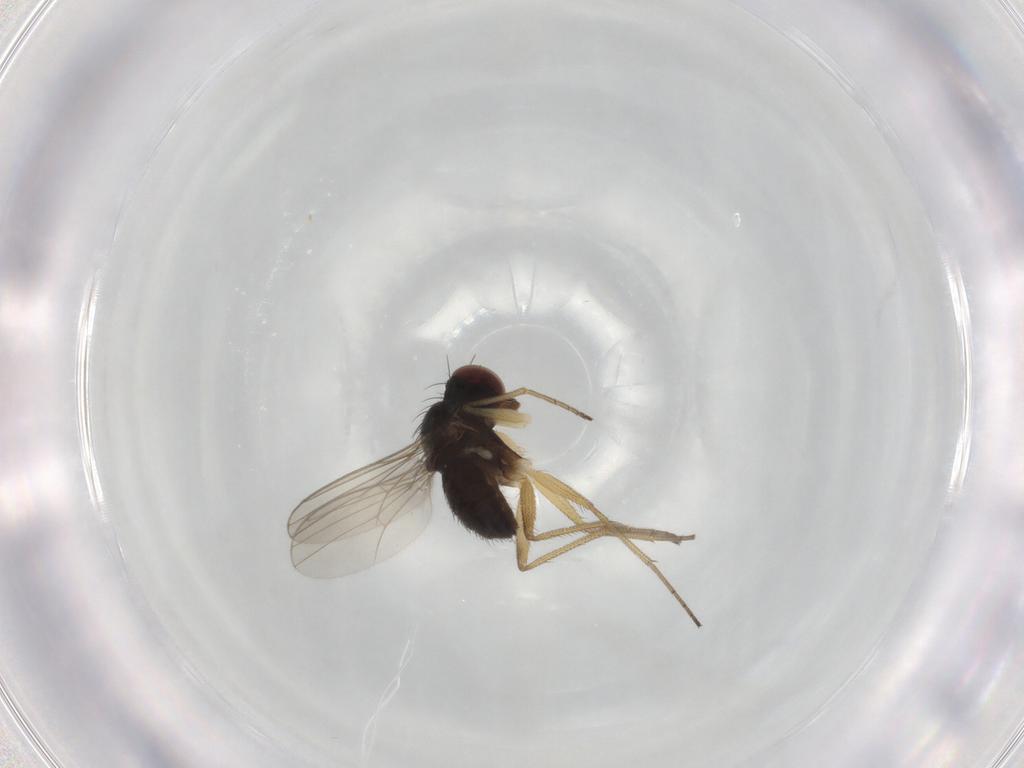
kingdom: Animalia
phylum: Arthropoda
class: Insecta
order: Diptera
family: Dolichopodidae
